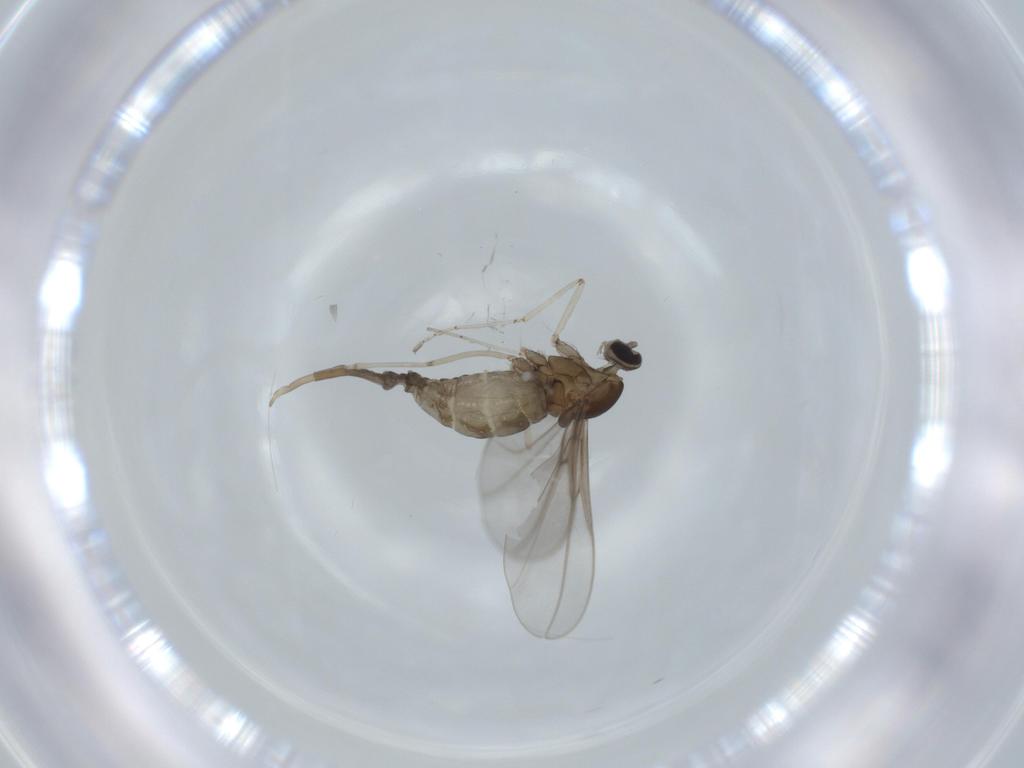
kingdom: Animalia
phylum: Arthropoda
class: Insecta
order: Diptera
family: Cecidomyiidae
